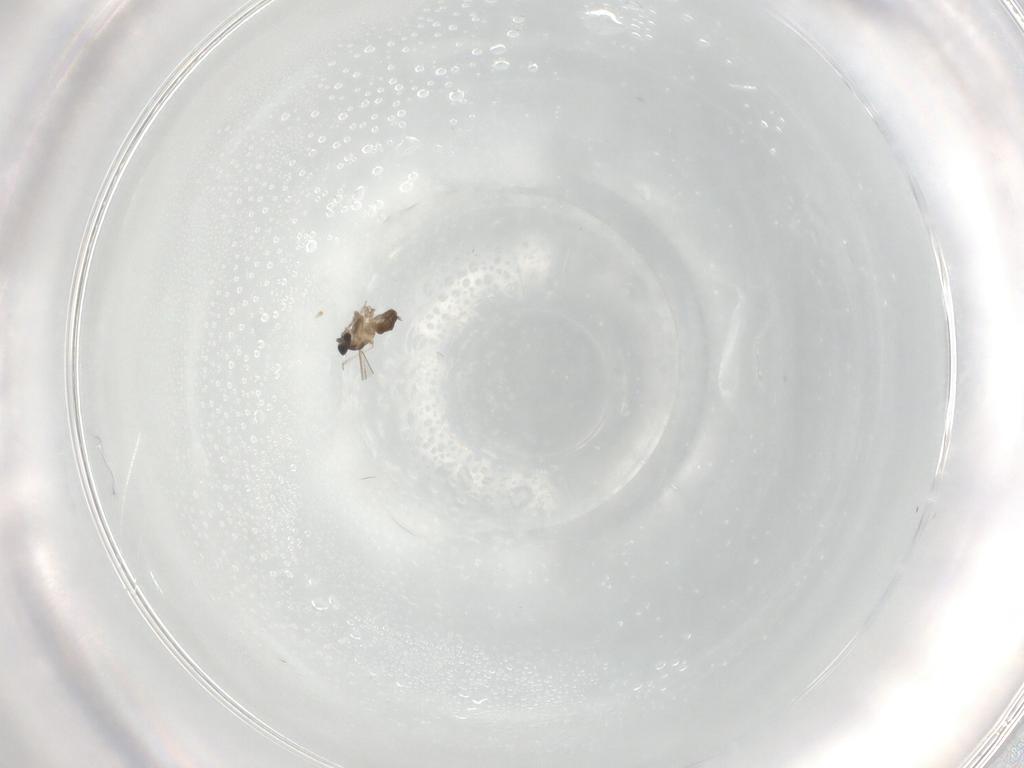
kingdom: Animalia
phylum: Arthropoda
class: Insecta
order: Diptera
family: Cecidomyiidae
